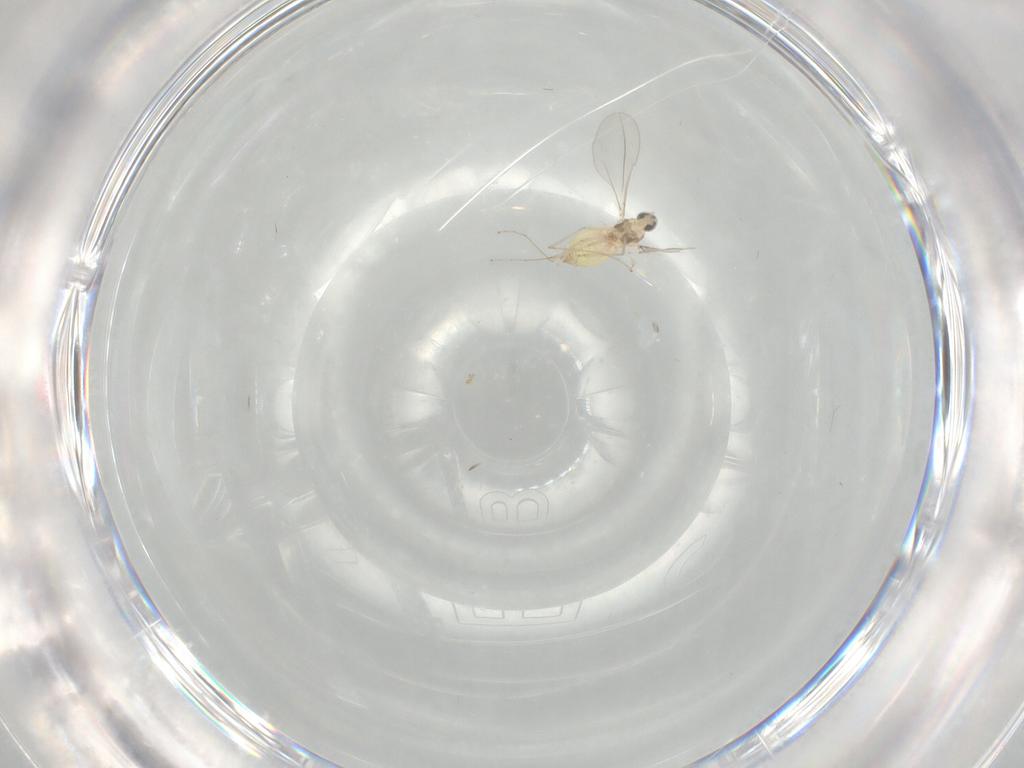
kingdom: Animalia
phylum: Arthropoda
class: Insecta
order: Diptera
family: Cecidomyiidae
